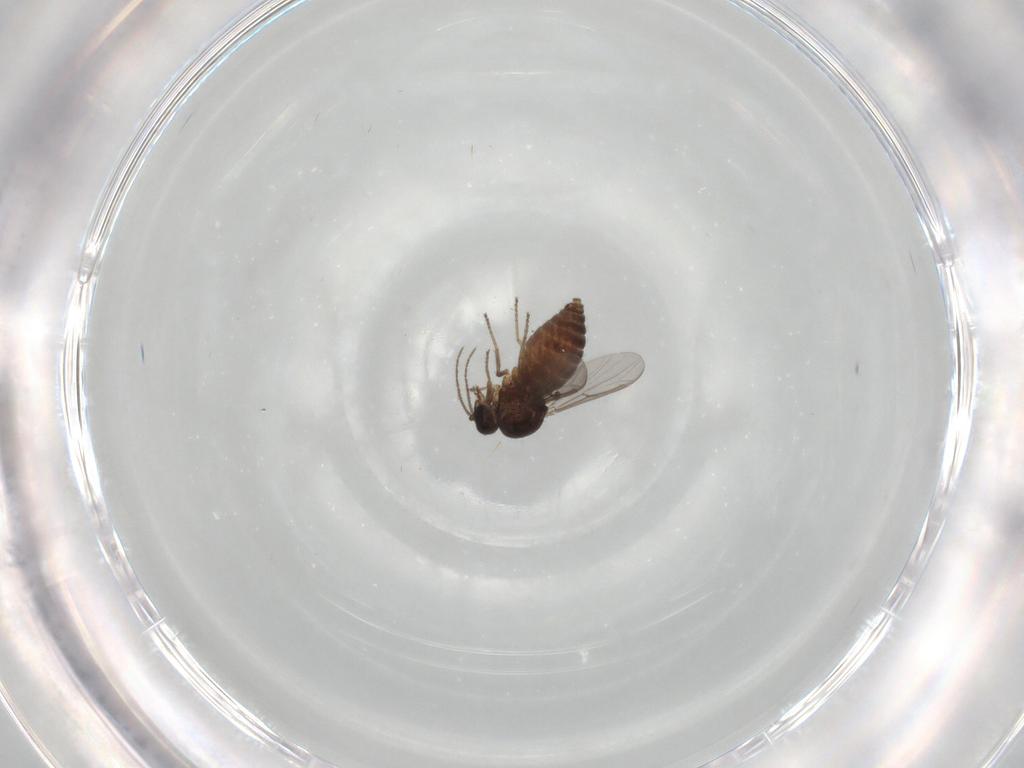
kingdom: Animalia
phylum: Arthropoda
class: Insecta
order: Diptera
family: Ceratopogonidae
